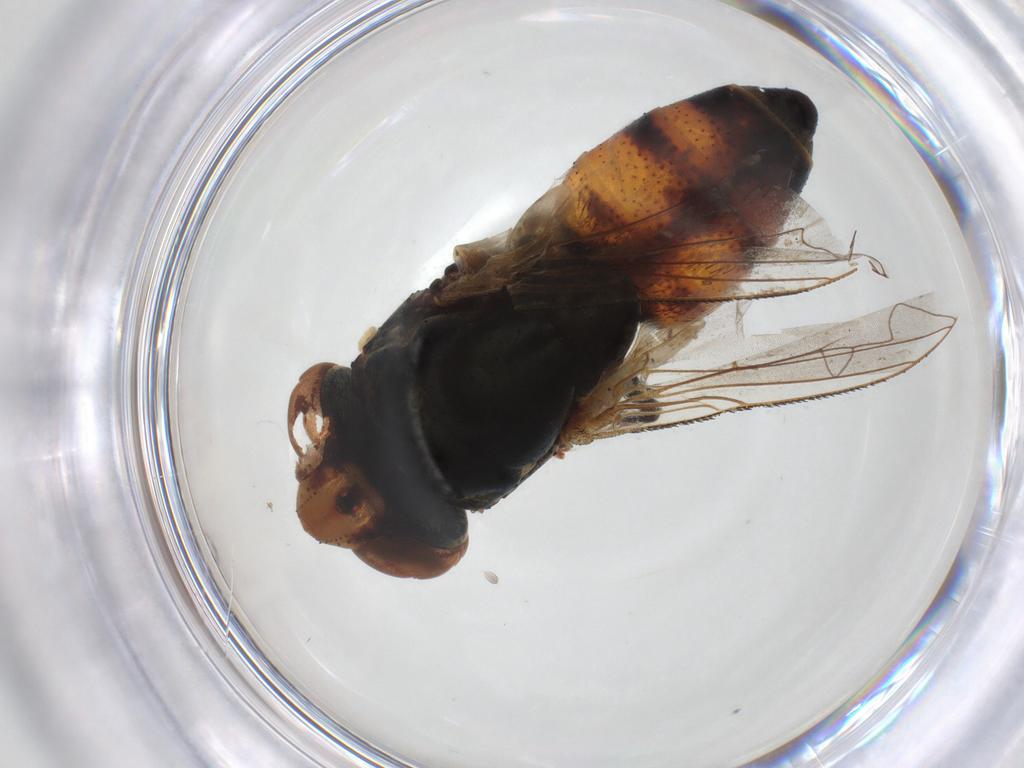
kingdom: Animalia
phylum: Arthropoda
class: Insecta
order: Diptera
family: Sarcophagidae
